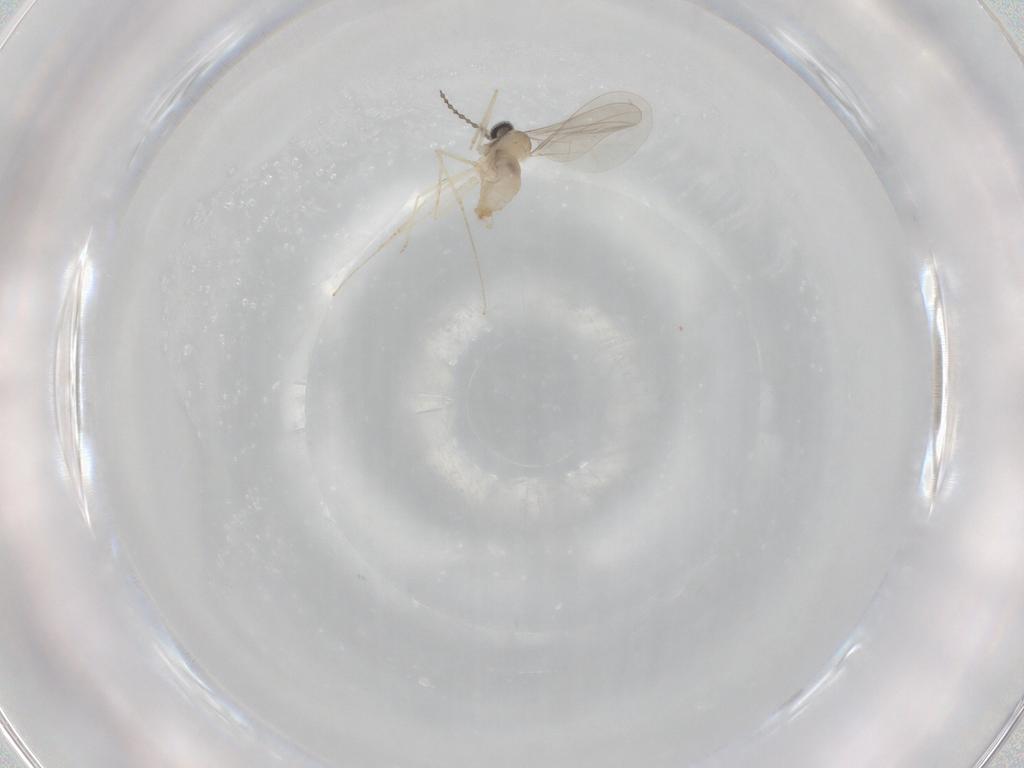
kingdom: Animalia
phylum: Arthropoda
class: Insecta
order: Diptera
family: Cecidomyiidae
